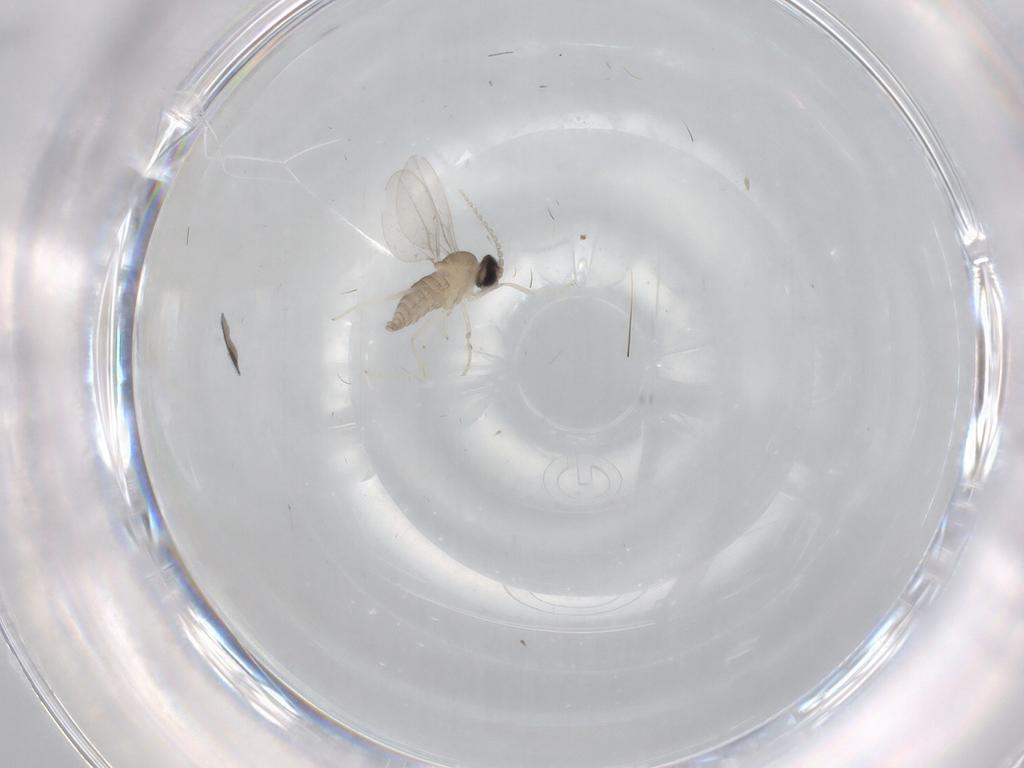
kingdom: Animalia
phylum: Arthropoda
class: Insecta
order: Diptera
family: Cecidomyiidae
